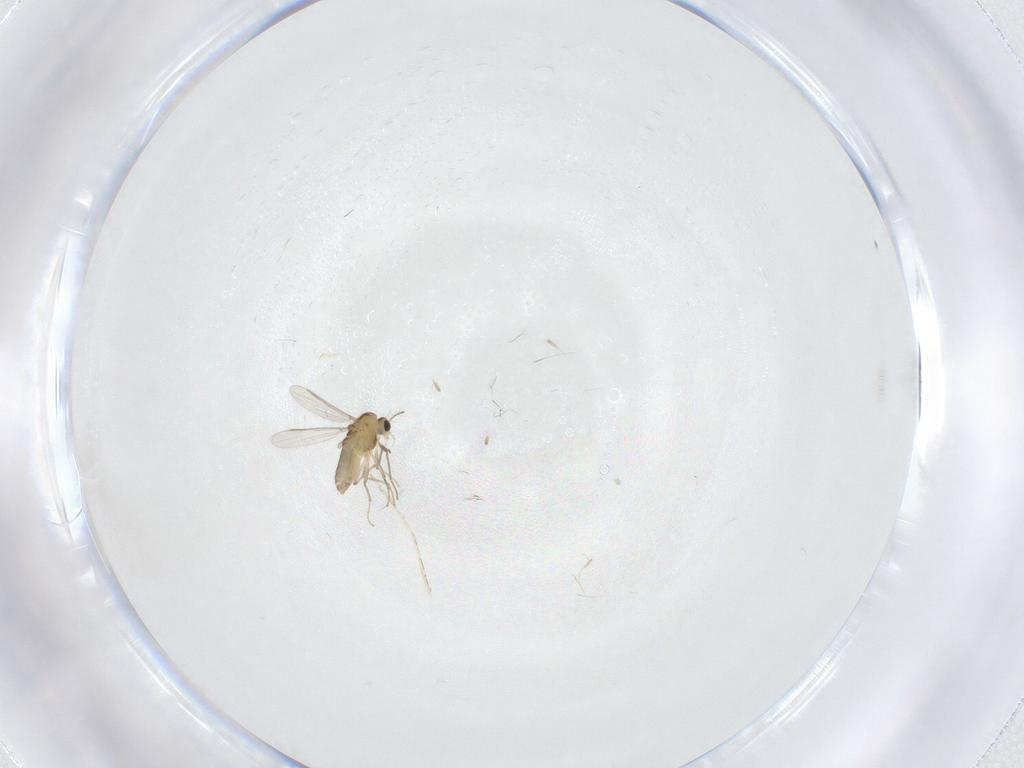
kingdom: Animalia
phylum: Arthropoda
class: Insecta
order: Diptera
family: Chironomidae
